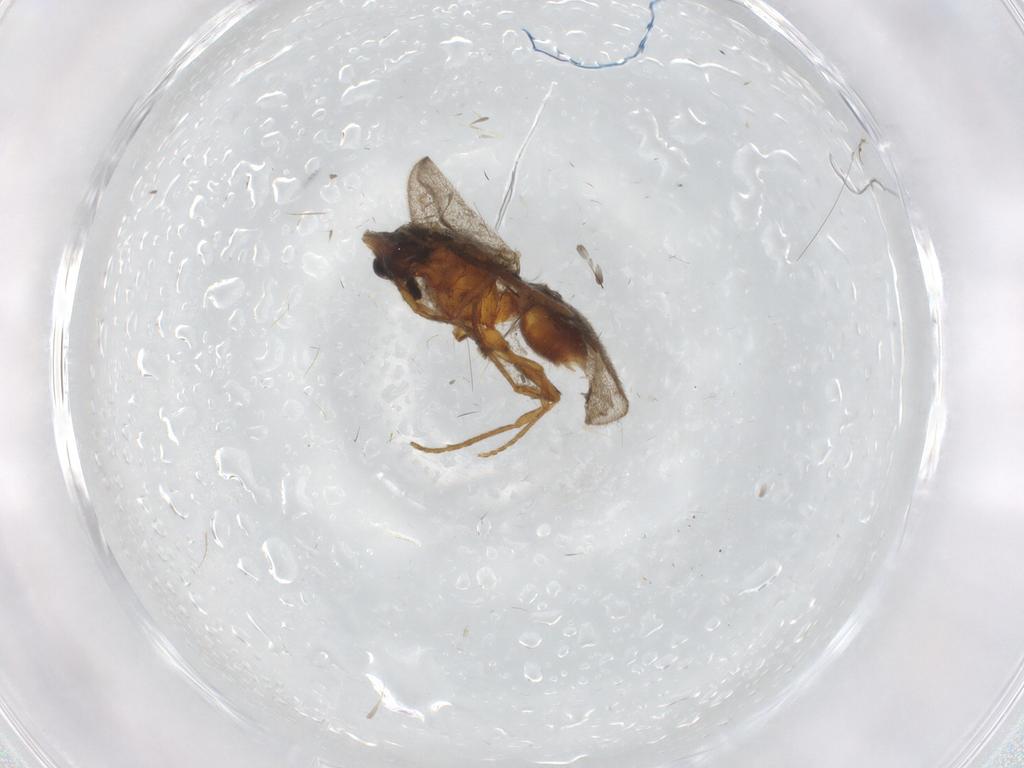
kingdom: Animalia
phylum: Arthropoda
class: Insecta
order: Diptera
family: Ceratopogonidae
